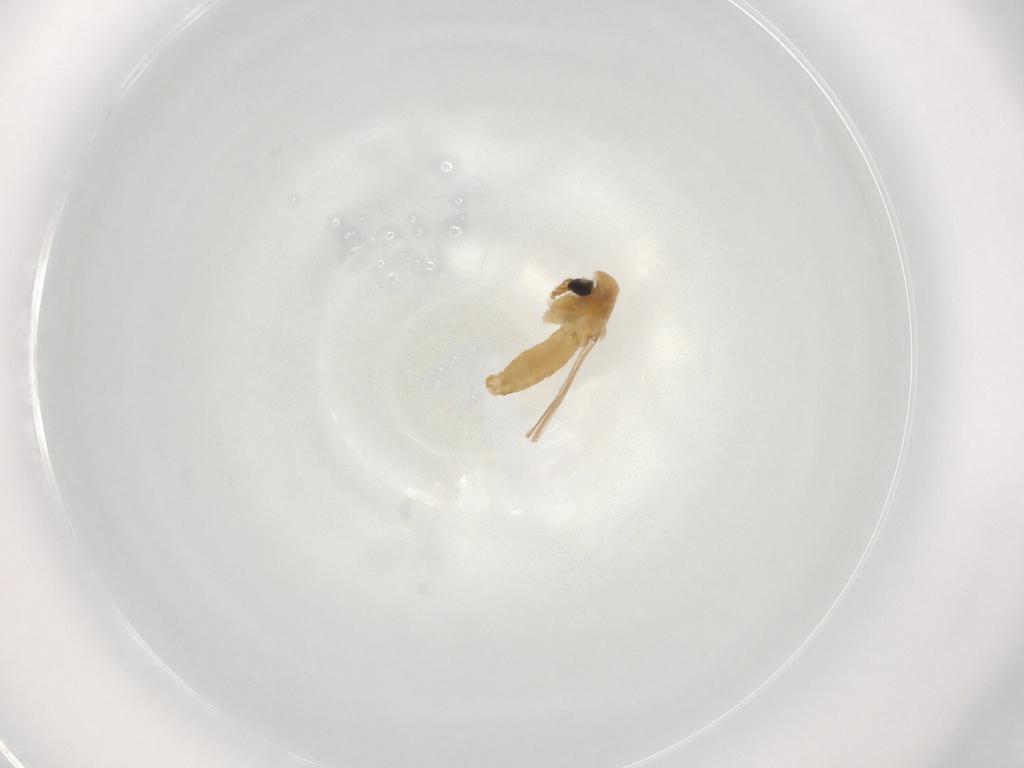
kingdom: Animalia
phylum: Arthropoda
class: Insecta
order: Diptera
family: Chironomidae
